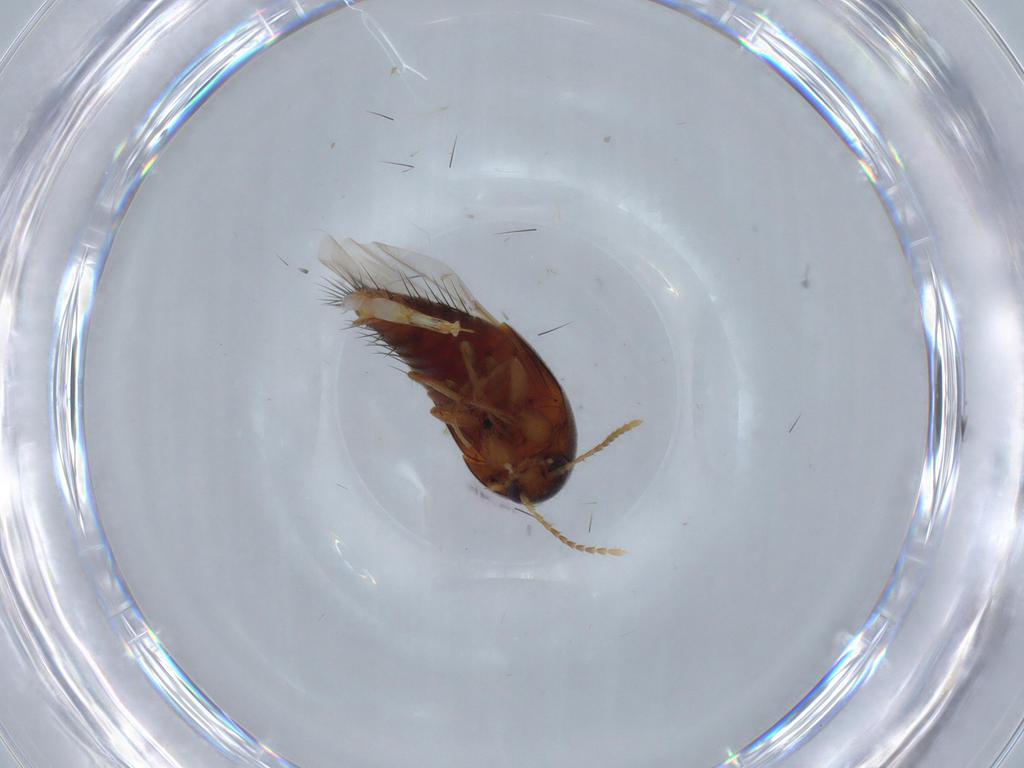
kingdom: Animalia
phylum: Arthropoda
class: Insecta
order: Coleoptera
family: Staphylinidae
